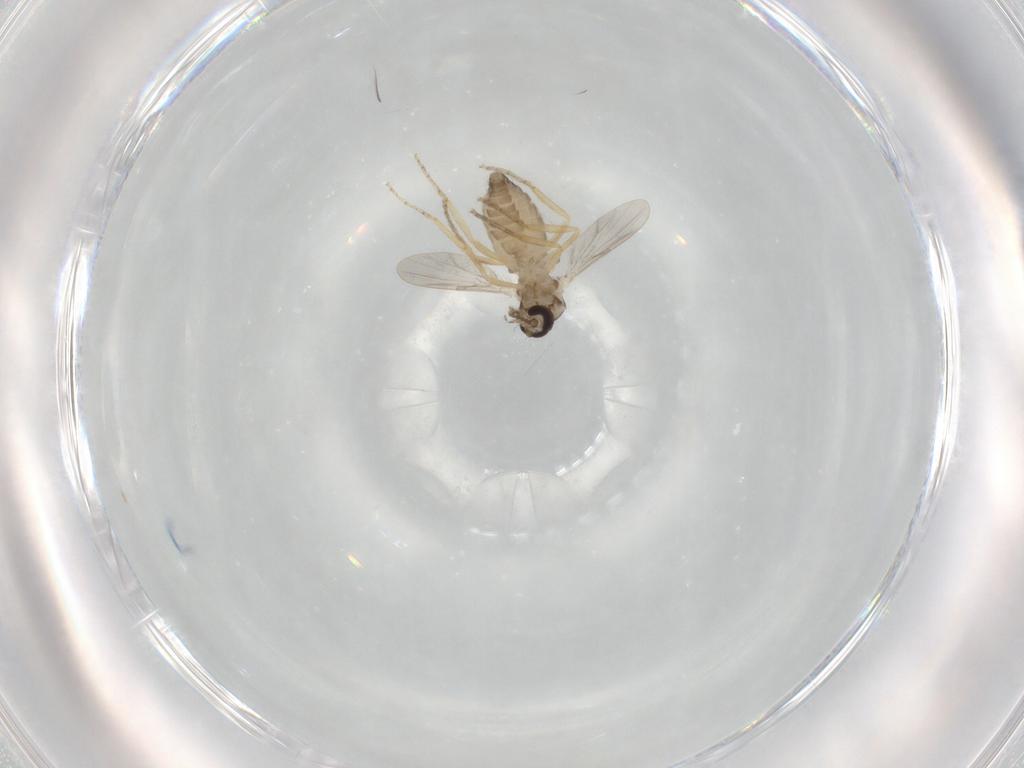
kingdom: Animalia
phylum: Arthropoda
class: Insecta
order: Diptera
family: Ceratopogonidae
